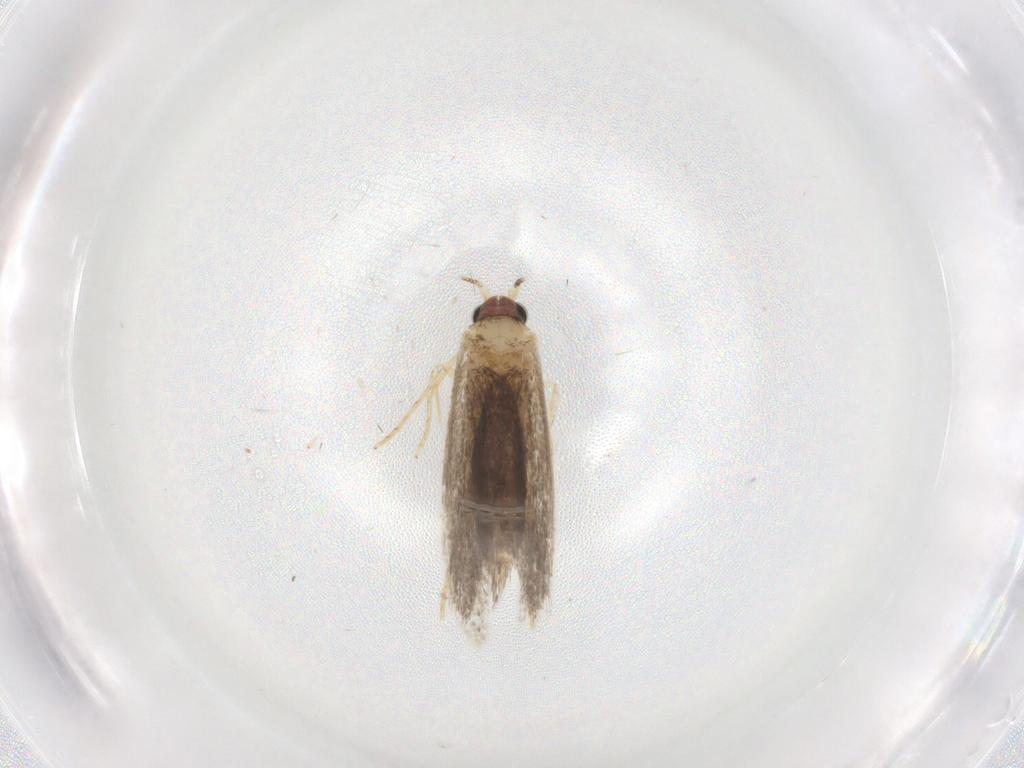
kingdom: Animalia
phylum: Arthropoda
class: Insecta
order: Lepidoptera
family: Nepticulidae
